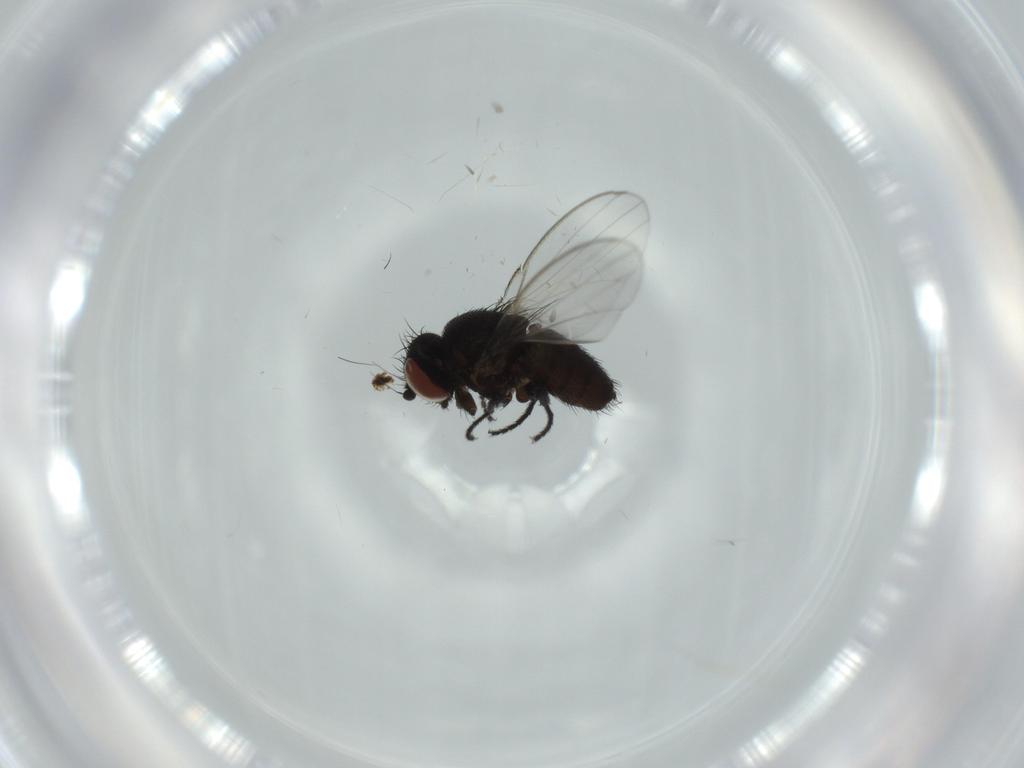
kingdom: Animalia
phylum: Arthropoda
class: Insecta
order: Diptera
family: Milichiidae
